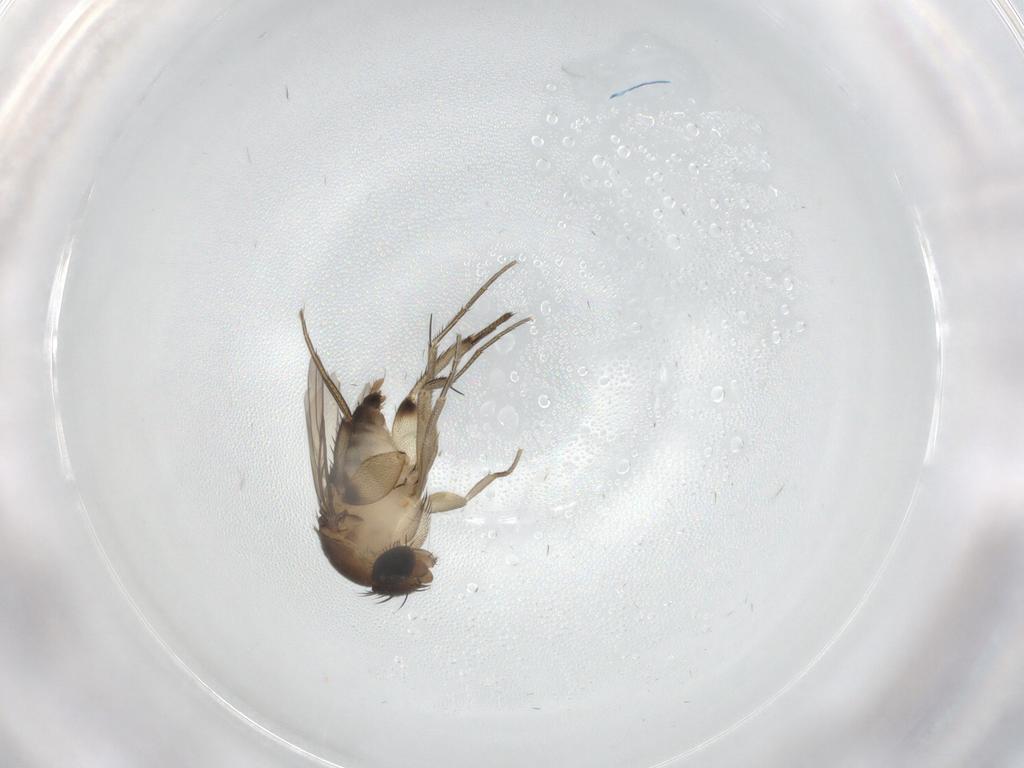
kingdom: Animalia
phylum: Arthropoda
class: Insecta
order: Diptera
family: Phoridae
